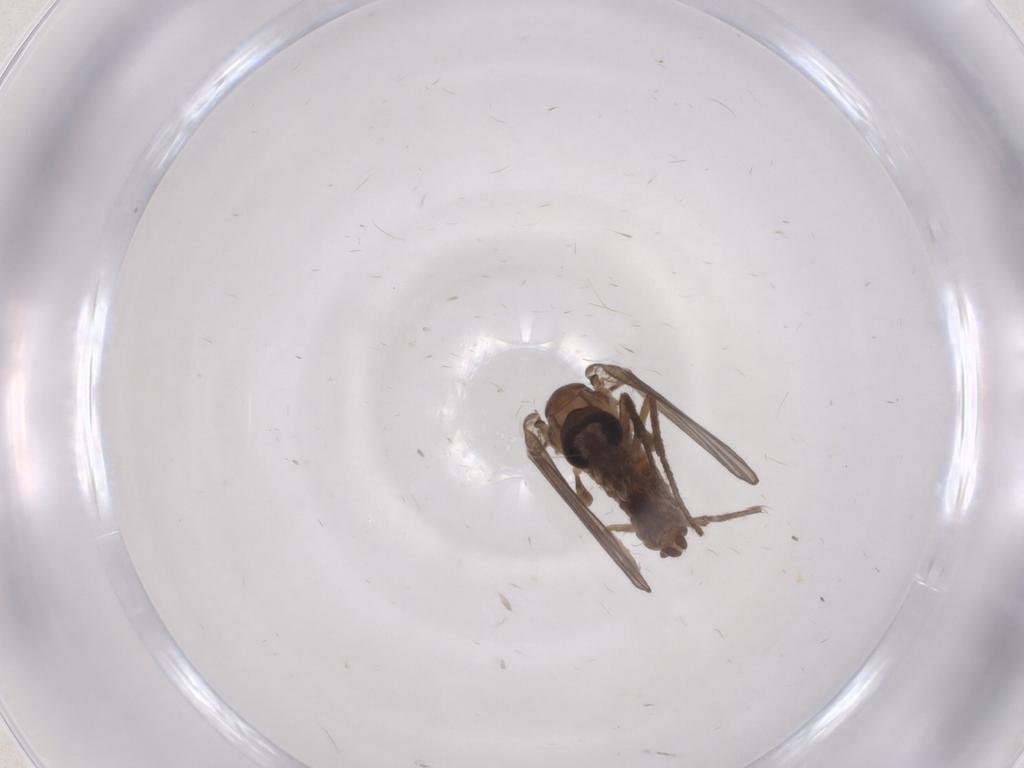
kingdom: Animalia
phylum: Arthropoda
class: Insecta
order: Diptera
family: Psychodidae
